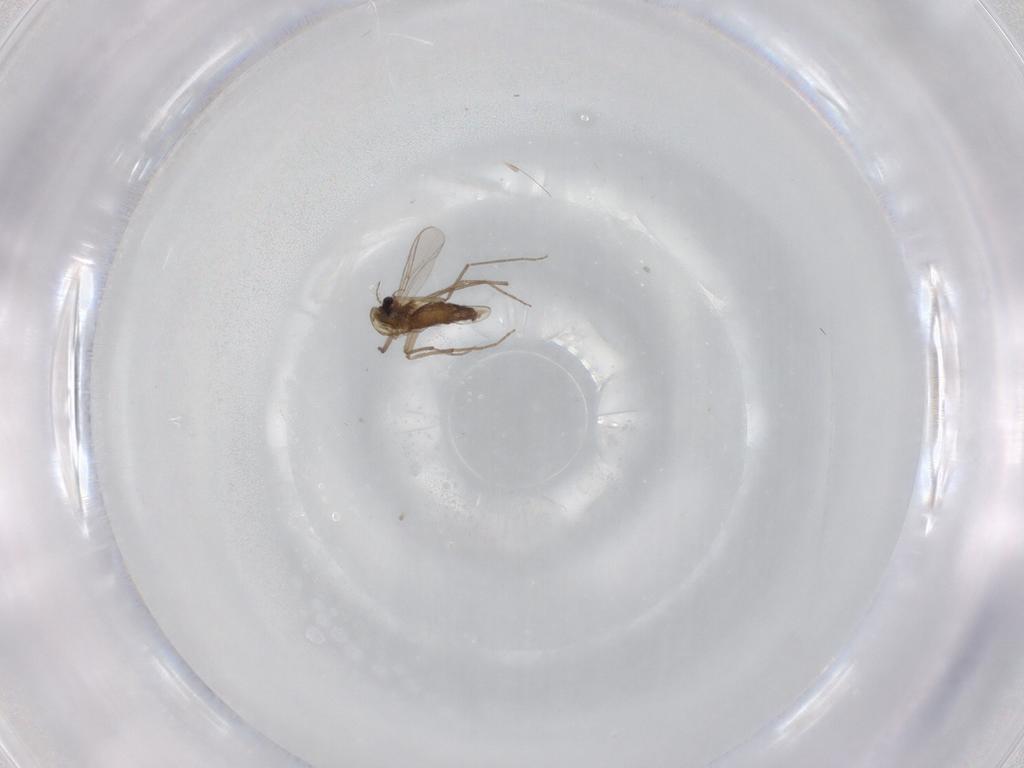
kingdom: Animalia
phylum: Arthropoda
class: Insecta
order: Diptera
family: Chironomidae
